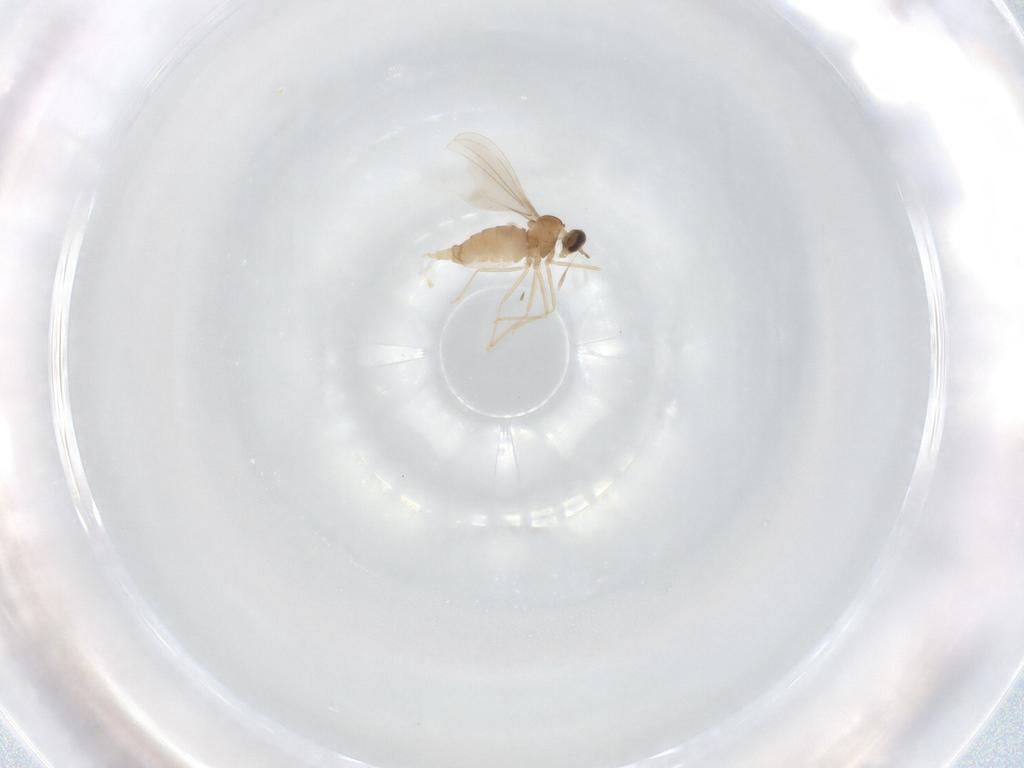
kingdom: Animalia
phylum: Arthropoda
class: Insecta
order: Diptera
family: Cecidomyiidae
